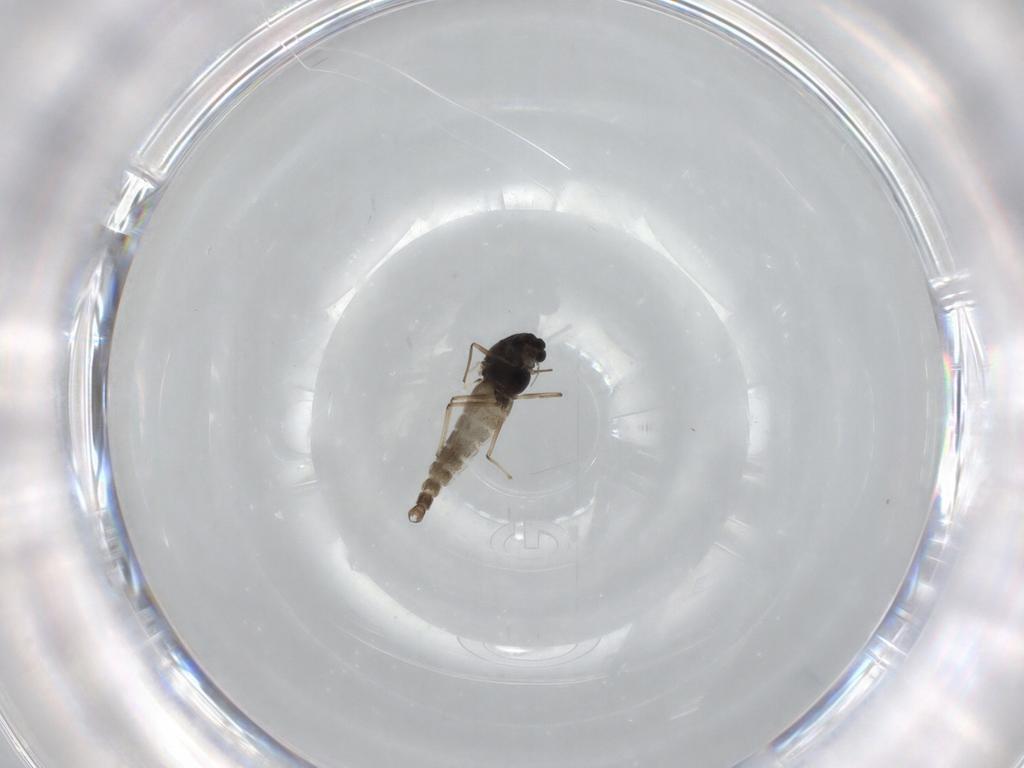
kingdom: Animalia
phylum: Arthropoda
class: Insecta
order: Diptera
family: Chironomidae
